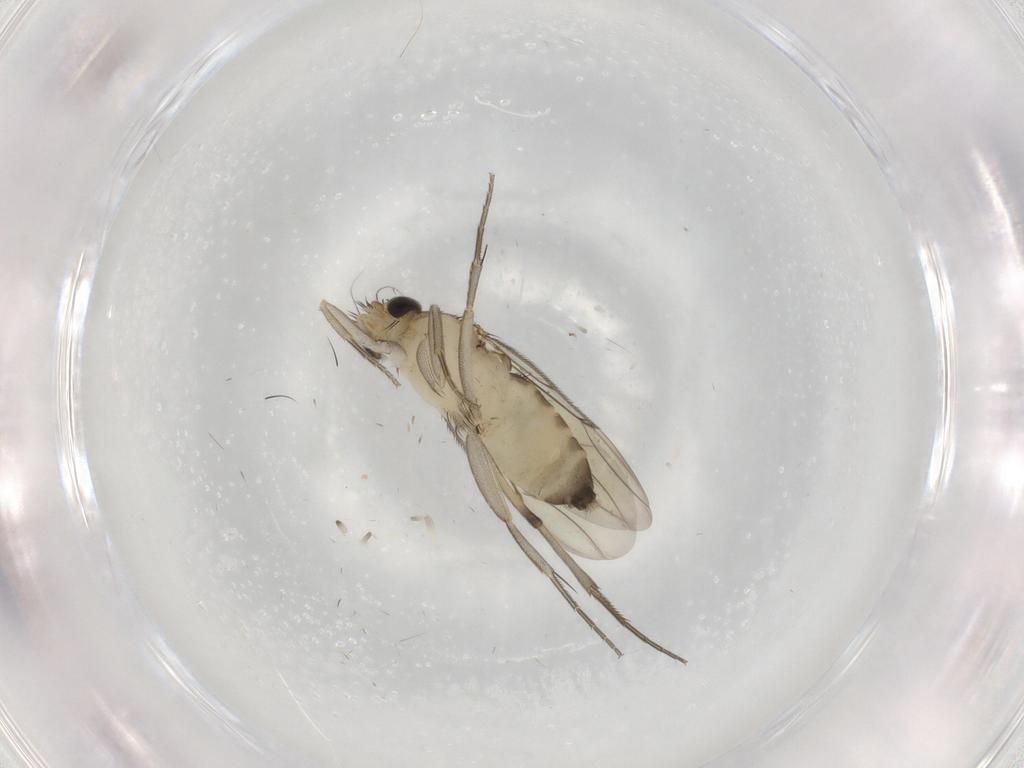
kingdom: Animalia
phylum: Arthropoda
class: Insecta
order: Diptera
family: Phoridae
